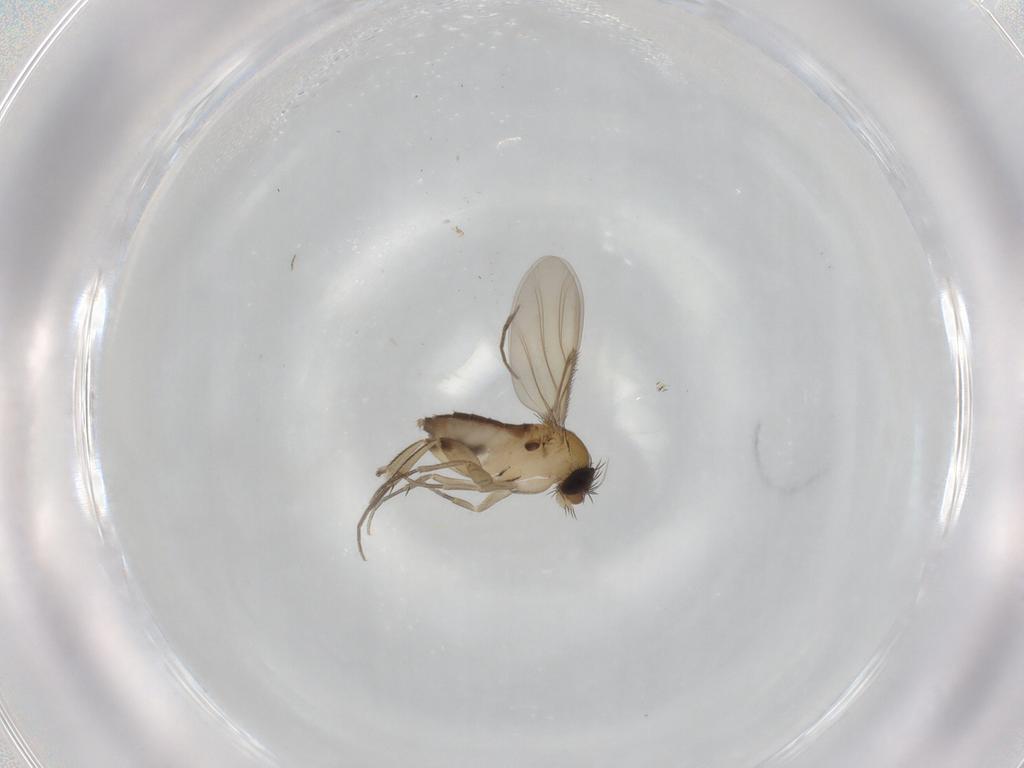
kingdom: Animalia
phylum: Arthropoda
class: Insecta
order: Diptera
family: Phoridae
